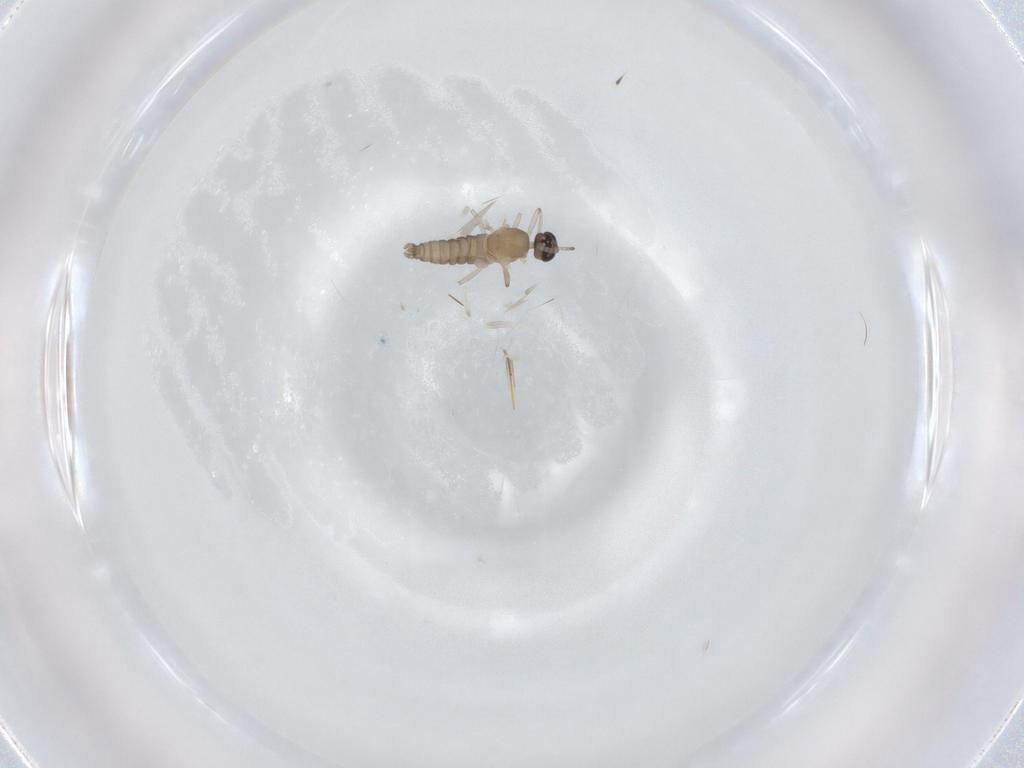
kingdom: Animalia
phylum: Arthropoda
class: Insecta
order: Diptera
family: Cecidomyiidae
